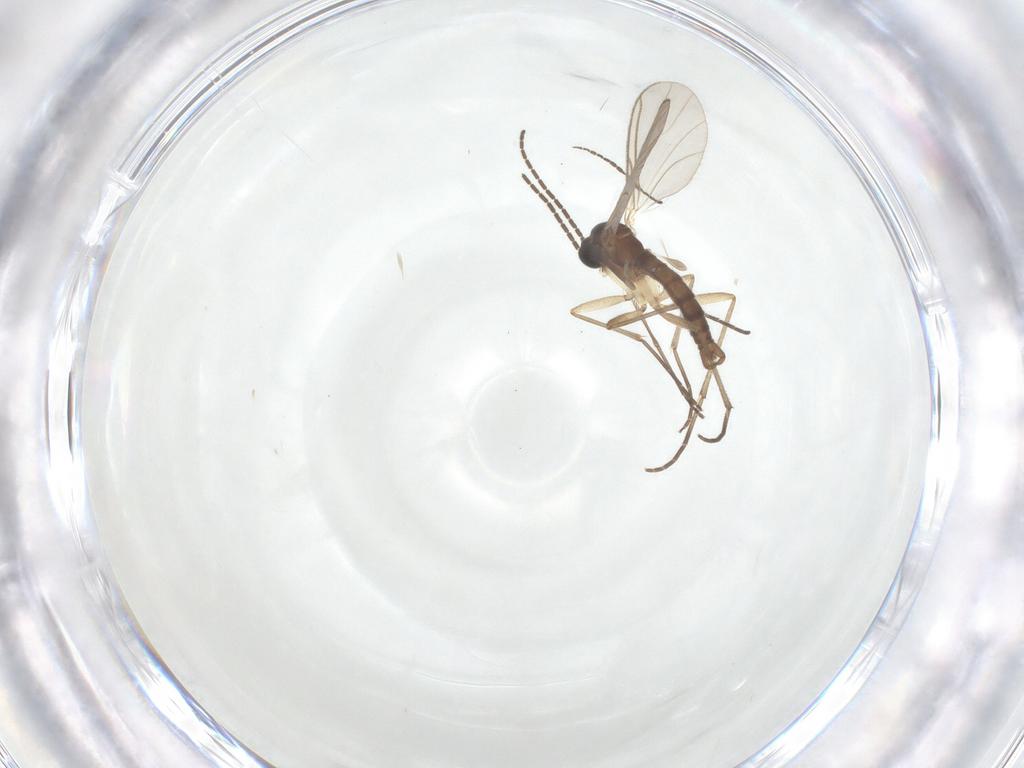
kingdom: Animalia
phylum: Arthropoda
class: Insecta
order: Diptera
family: Sciaridae
